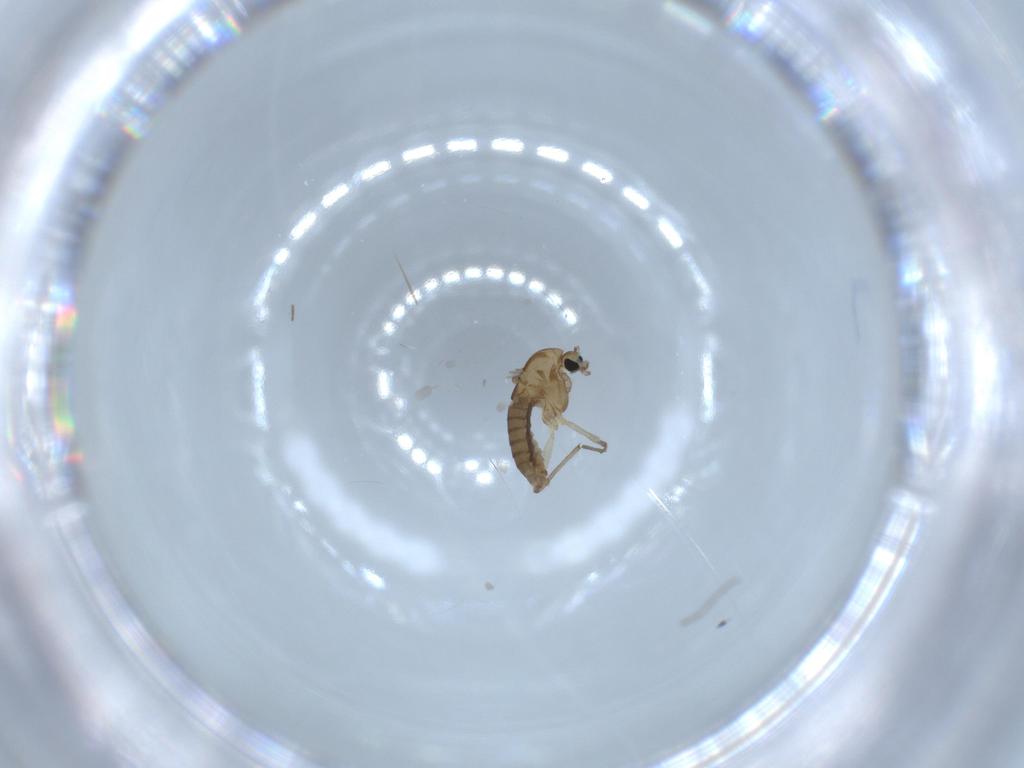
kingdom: Animalia
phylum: Arthropoda
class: Insecta
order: Diptera
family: Chironomidae
